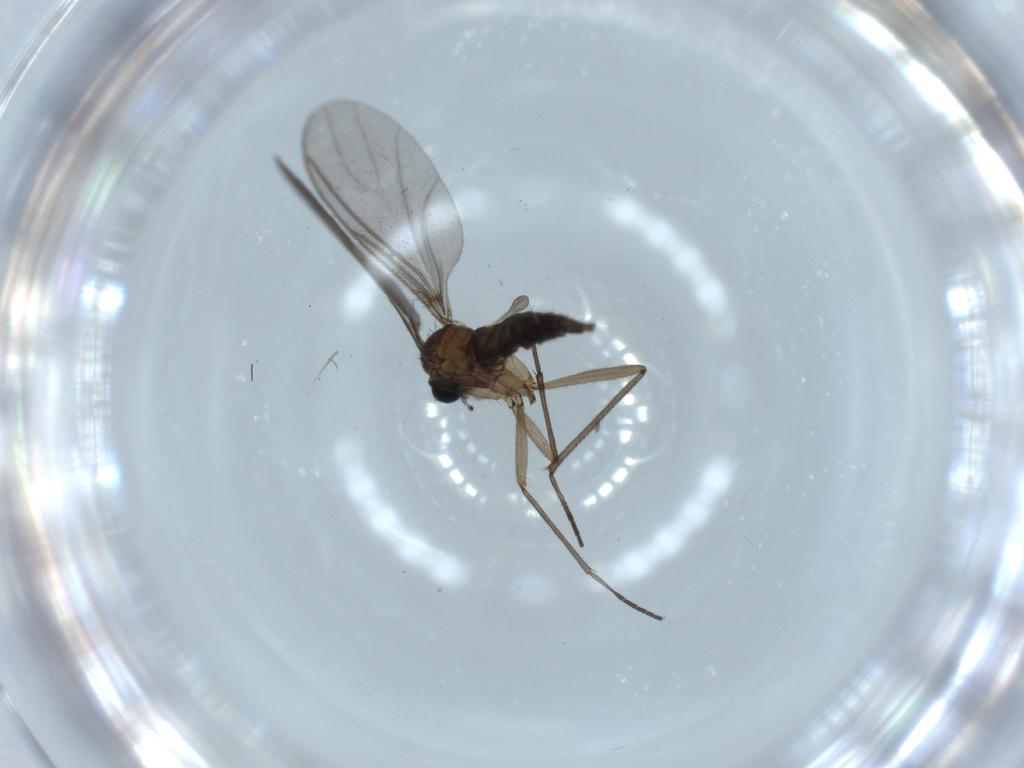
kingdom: Animalia
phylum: Arthropoda
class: Insecta
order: Diptera
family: Sciaridae
